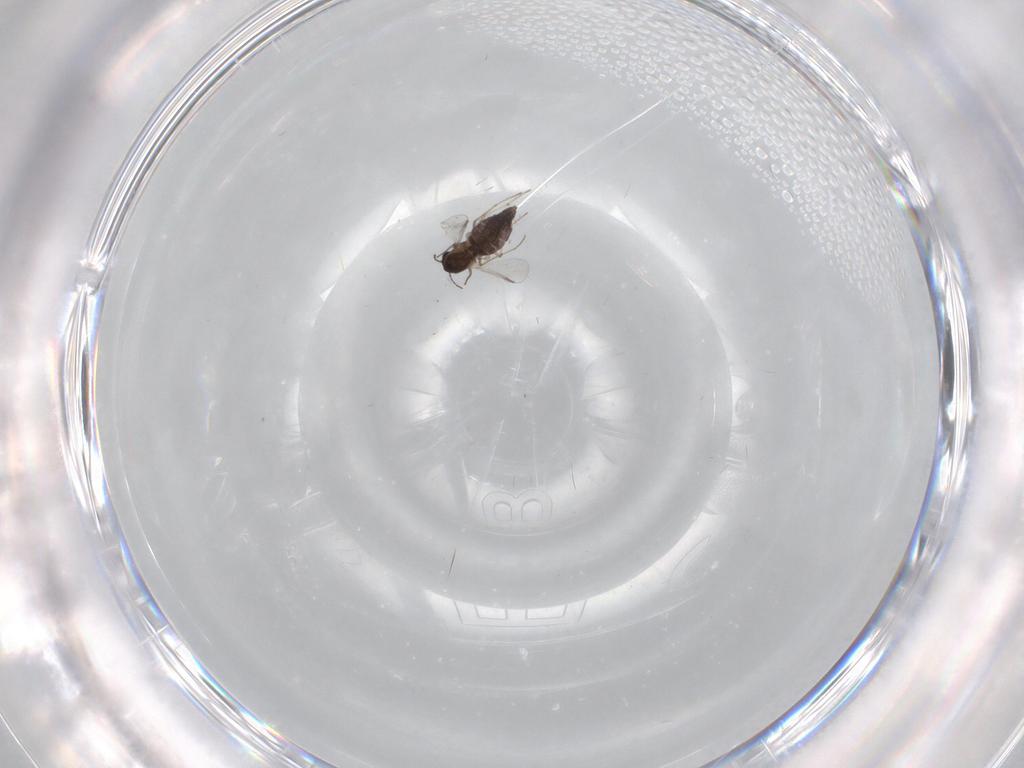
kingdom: Animalia
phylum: Arthropoda
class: Insecta
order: Diptera
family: Chironomidae
